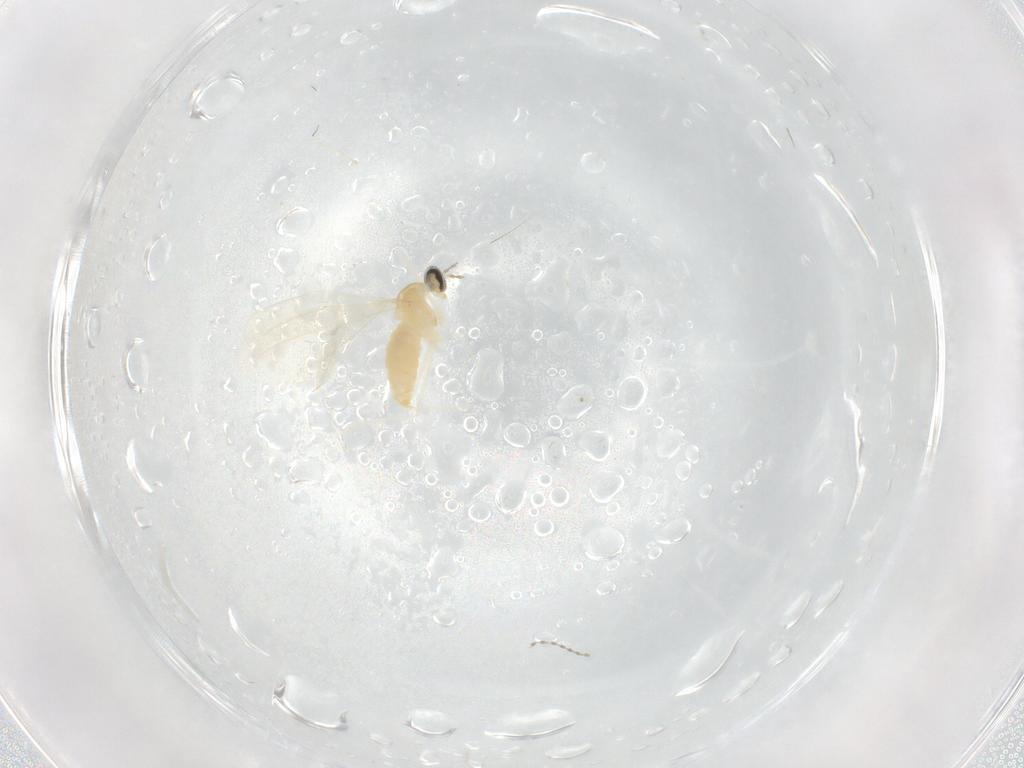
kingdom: Animalia
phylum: Arthropoda
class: Insecta
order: Diptera
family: Cecidomyiidae
